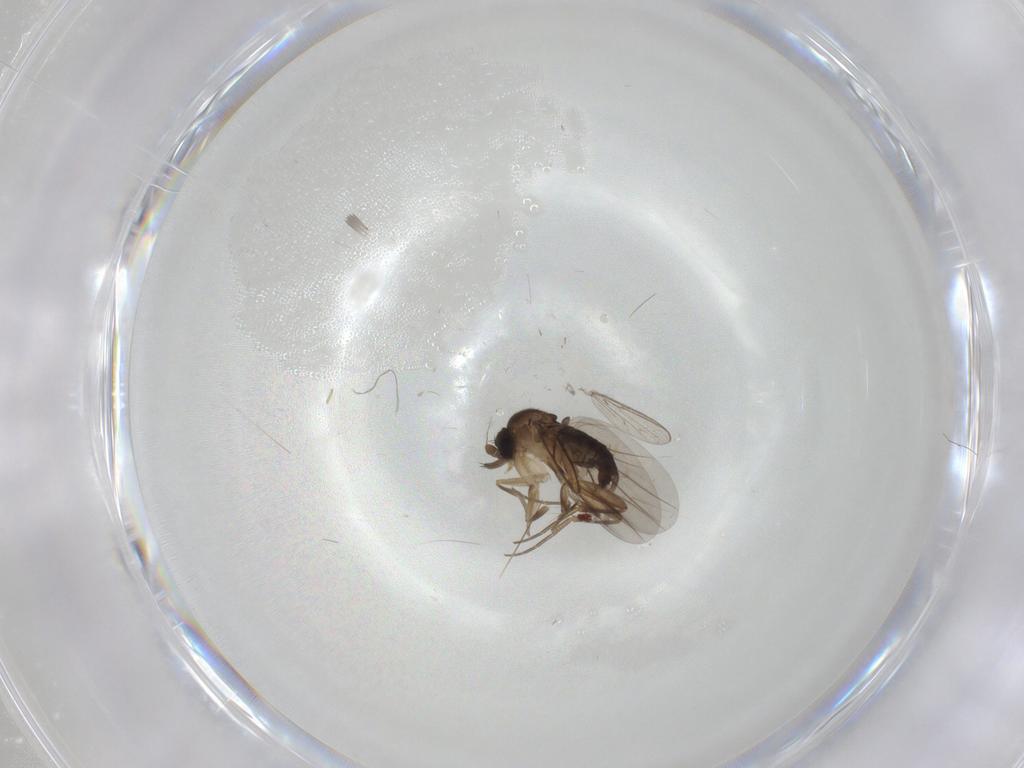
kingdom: Animalia
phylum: Arthropoda
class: Insecta
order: Diptera
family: Phoridae
